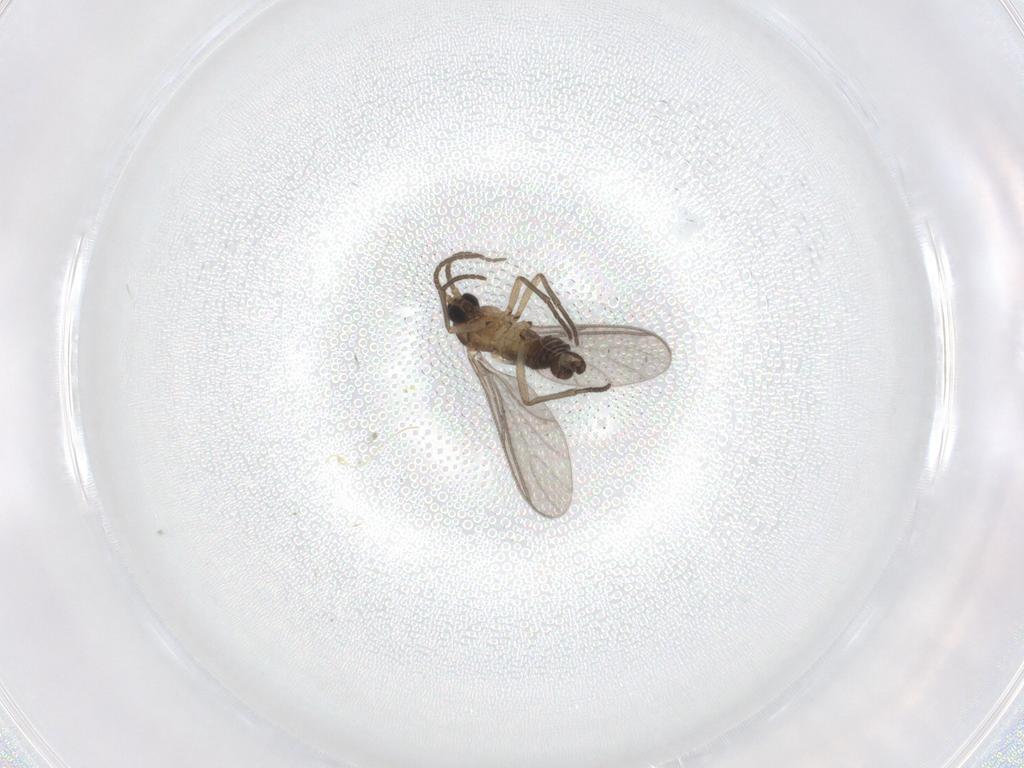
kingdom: Animalia
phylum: Arthropoda
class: Insecta
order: Diptera
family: Sciaridae
